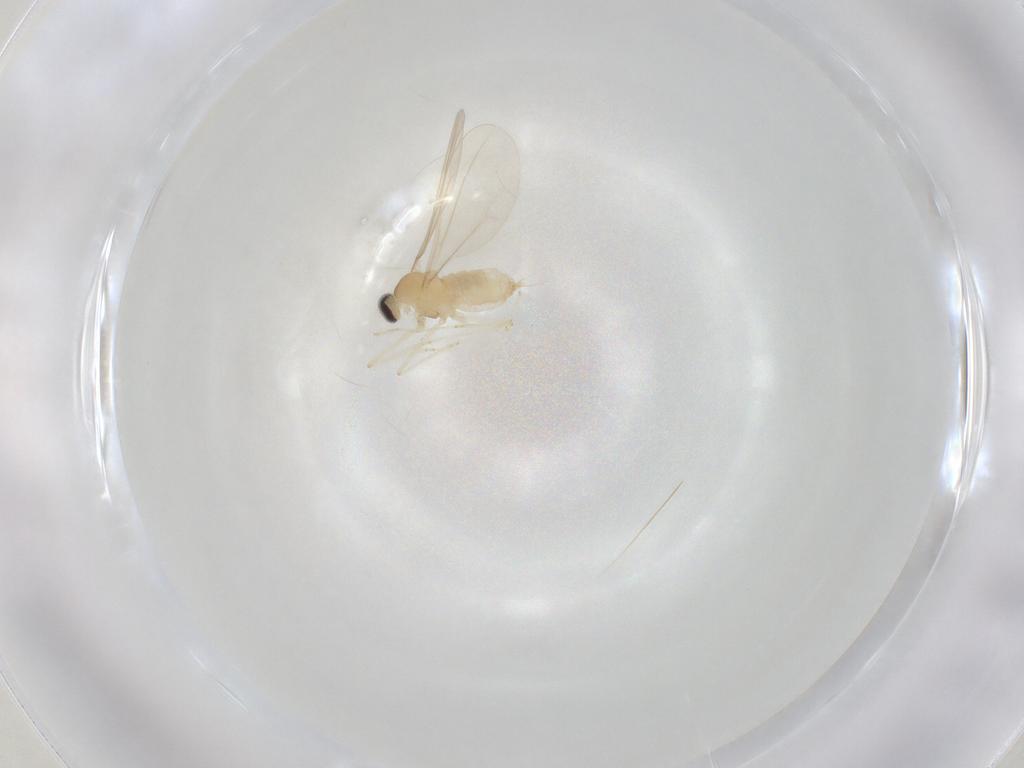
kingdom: Animalia
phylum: Arthropoda
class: Insecta
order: Diptera
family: Cecidomyiidae
